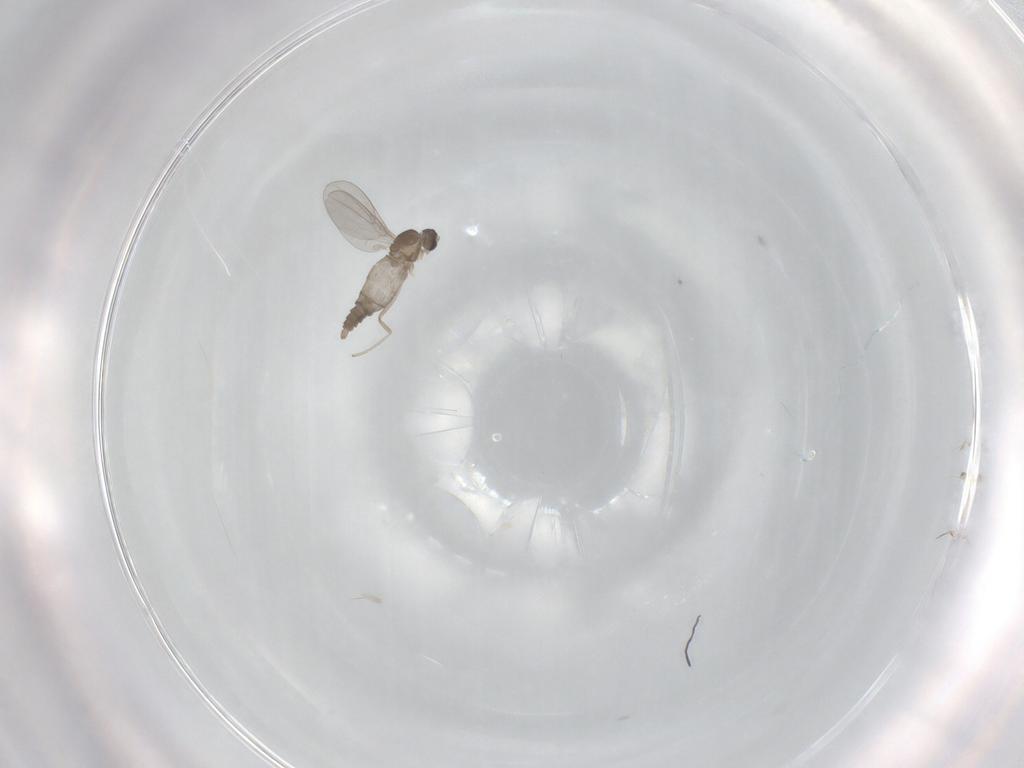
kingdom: Animalia
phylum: Arthropoda
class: Insecta
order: Diptera
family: Cecidomyiidae
